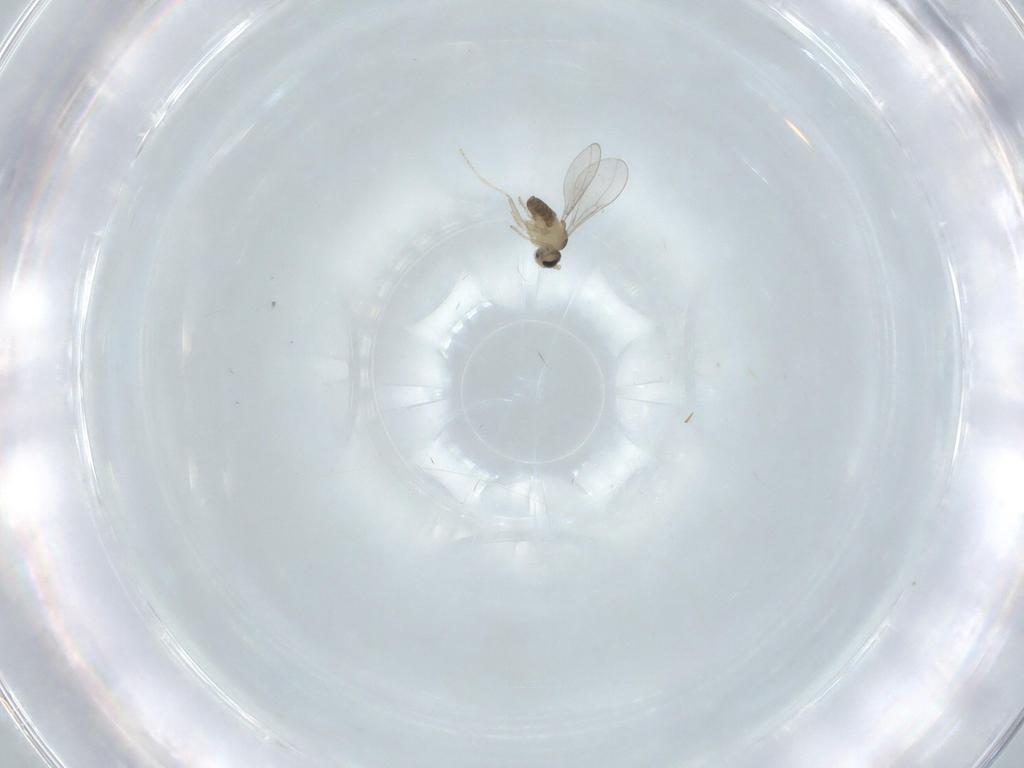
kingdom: Animalia
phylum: Arthropoda
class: Insecta
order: Diptera
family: Cecidomyiidae
